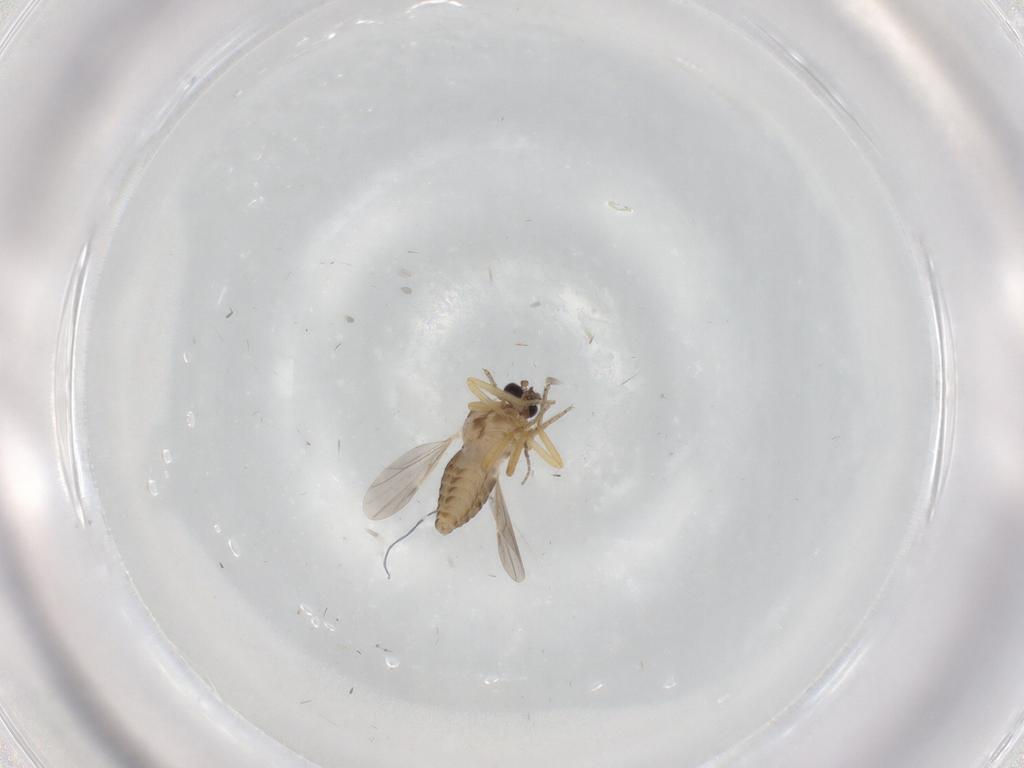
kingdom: Animalia
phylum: Arthropoda
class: Insecta
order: Diptera
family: Ceratopogonidae
